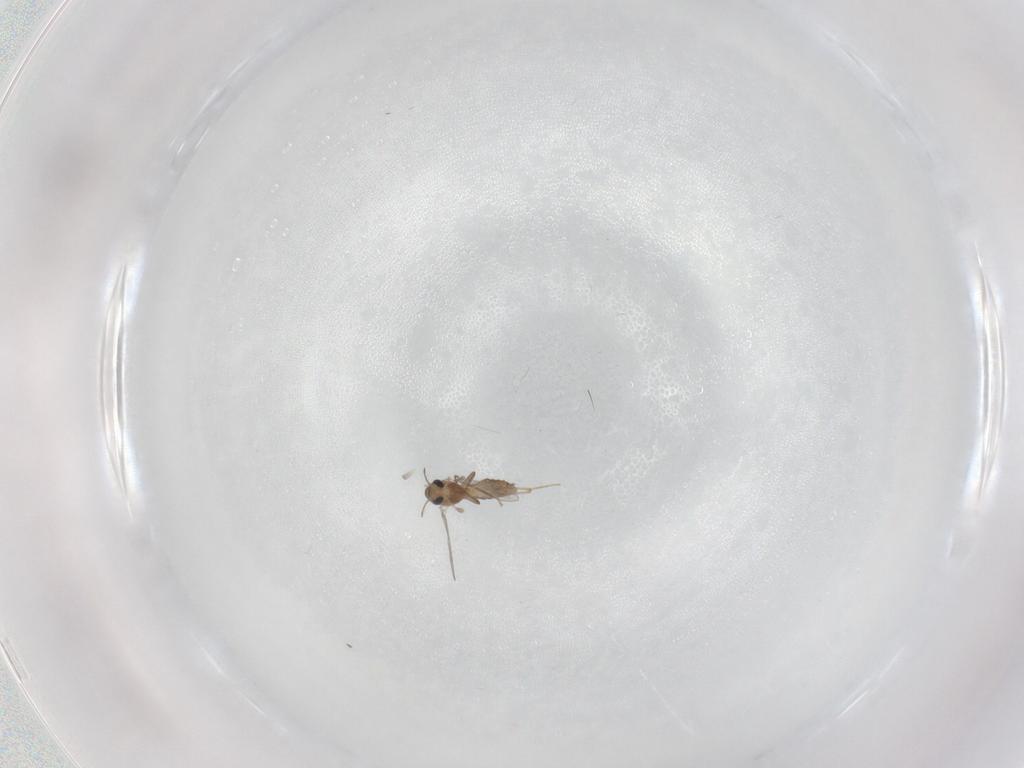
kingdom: Animalia
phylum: Arthropoda
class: Insecta
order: Diptera
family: Chironomidae
